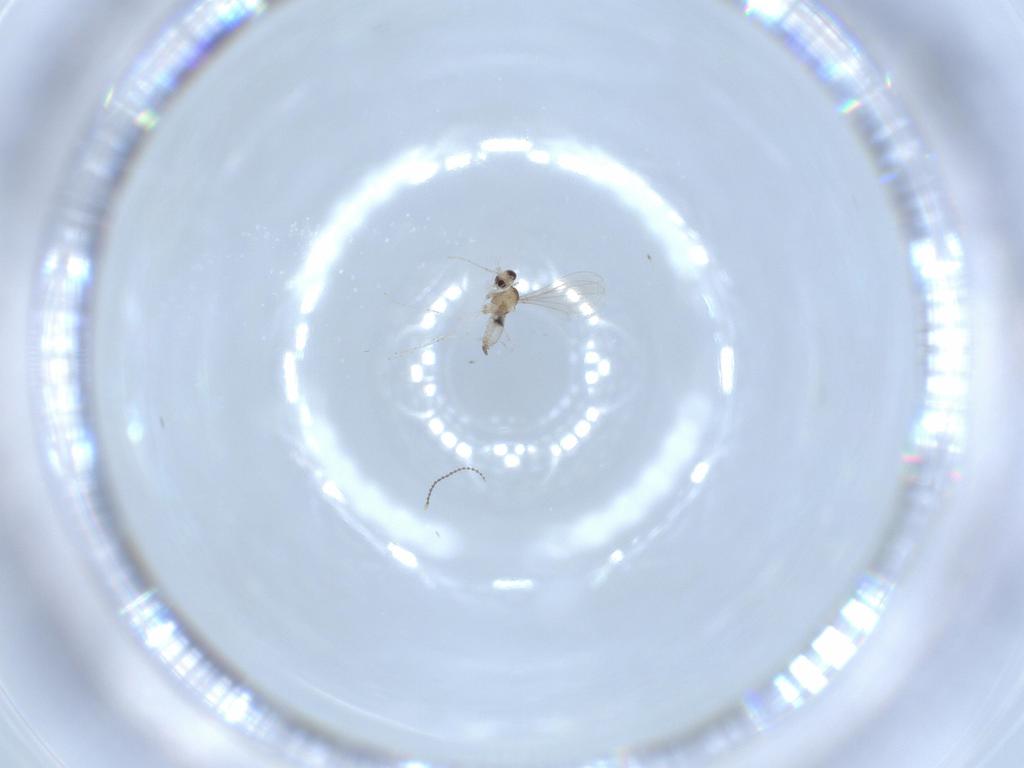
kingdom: Animalia
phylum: Arthropoda
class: Insecta
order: Diptera
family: Cecidomyiidae
